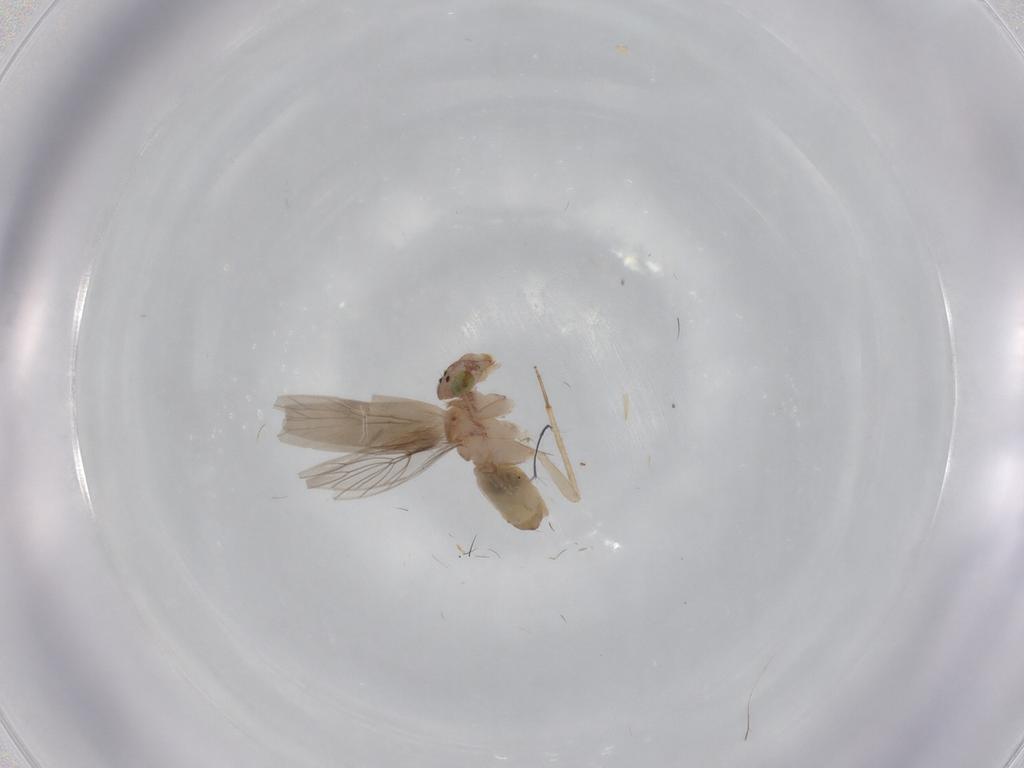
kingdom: Animalia
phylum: Arthropoda
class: Insecta
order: Psocodea
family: Lepidopsocidae
